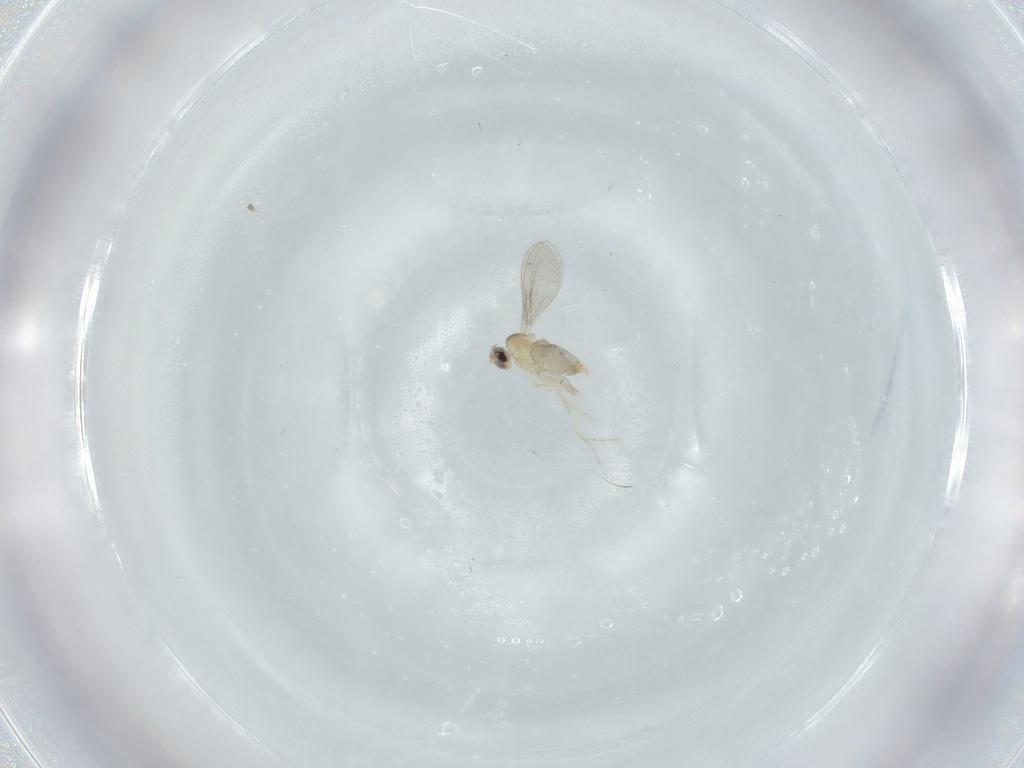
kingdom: Animalia
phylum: Arthropoda
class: Insecta
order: Diptera
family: Cecidomyiidae
